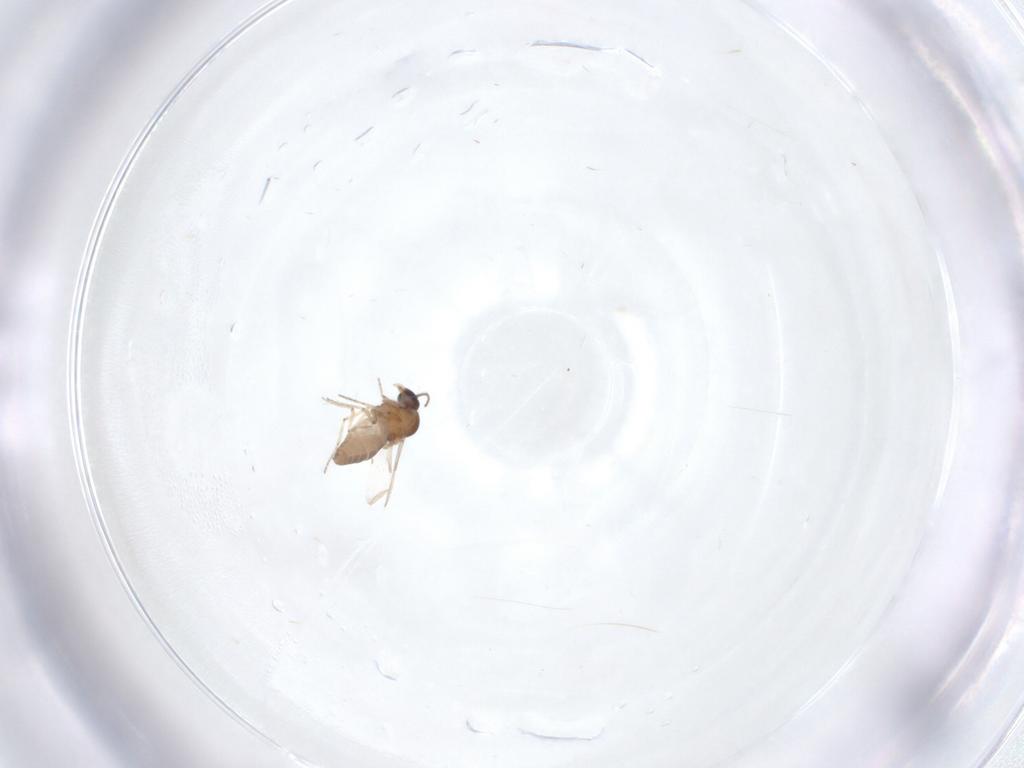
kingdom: Animalia
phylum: Arthropoda
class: Insecta
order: Diptera
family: Ceratopogonidae
